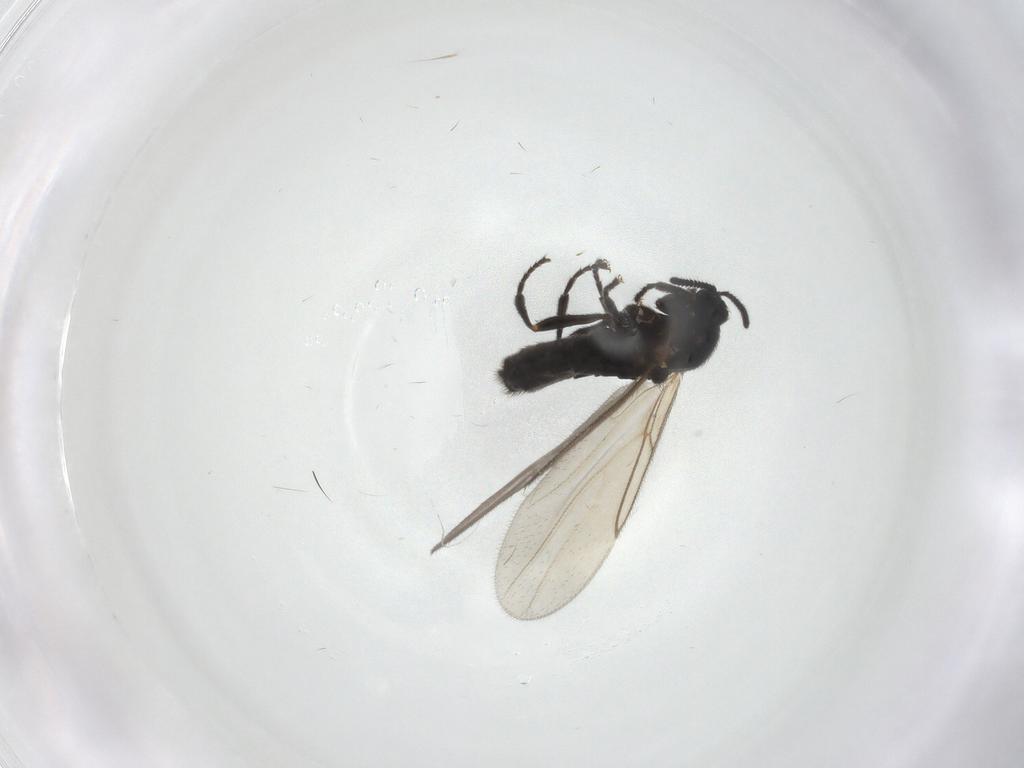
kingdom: Animalia
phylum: Arthropoda
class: Insecta
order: Diptera
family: Scatopsidae
